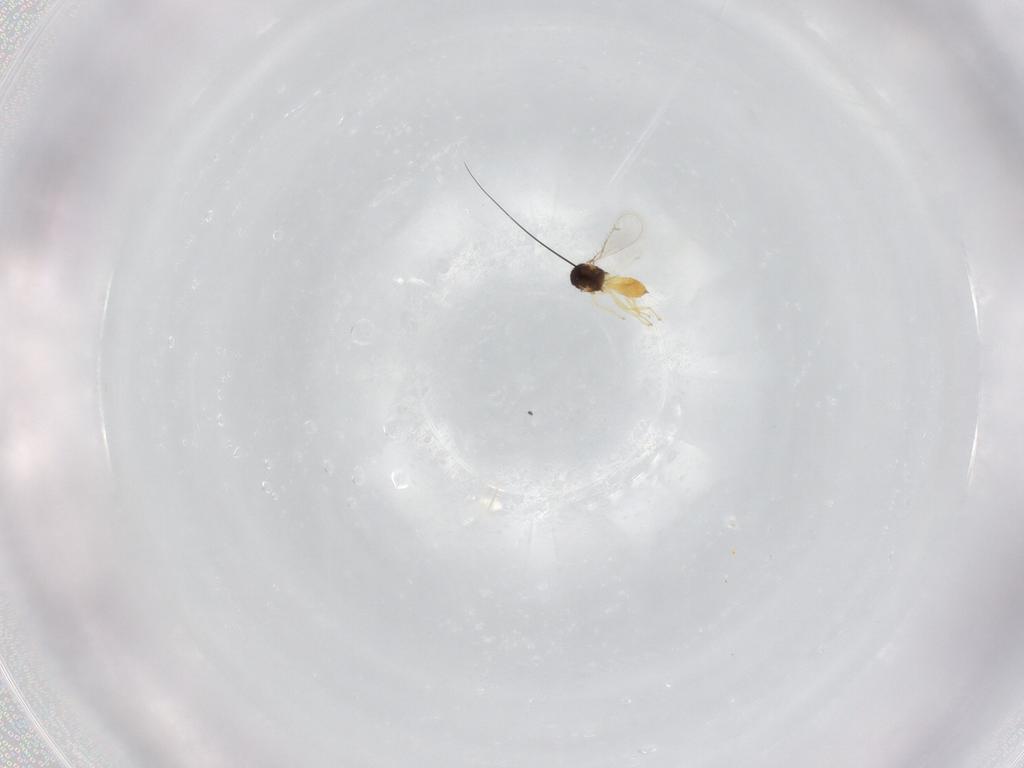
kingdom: Animalia
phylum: Arthropoda
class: Insecta
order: Hymenoptera
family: Eulophidae
